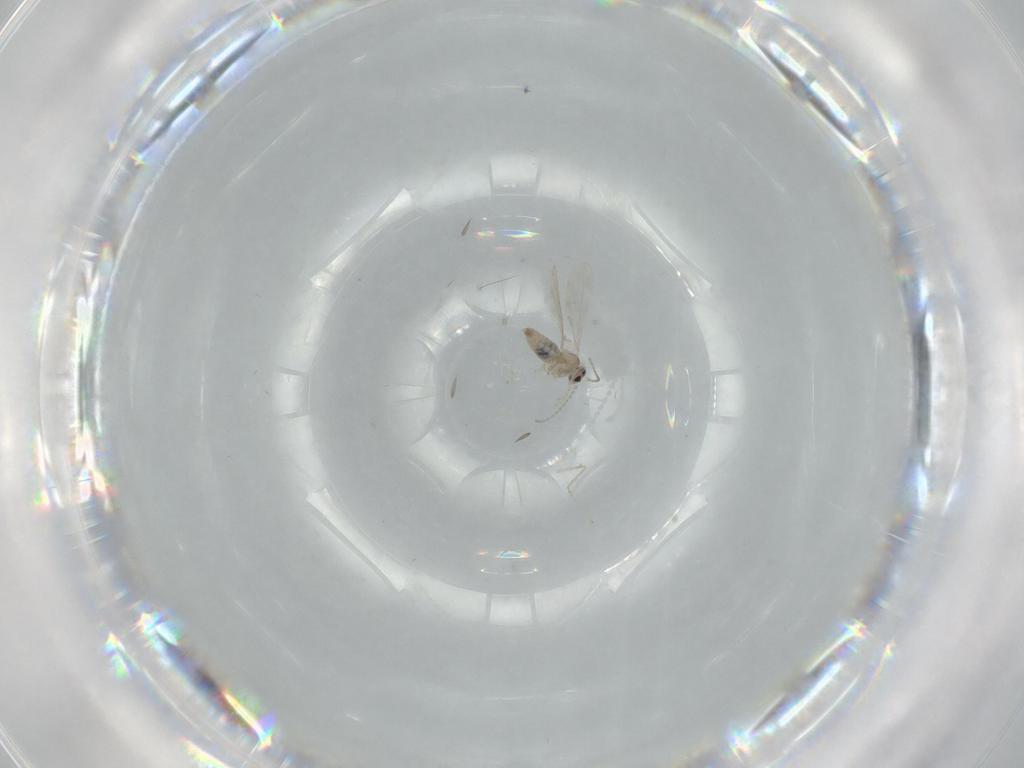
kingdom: Animalia
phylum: Arthropoda
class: Insecta
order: Diptera
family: Cecidomyiidae
